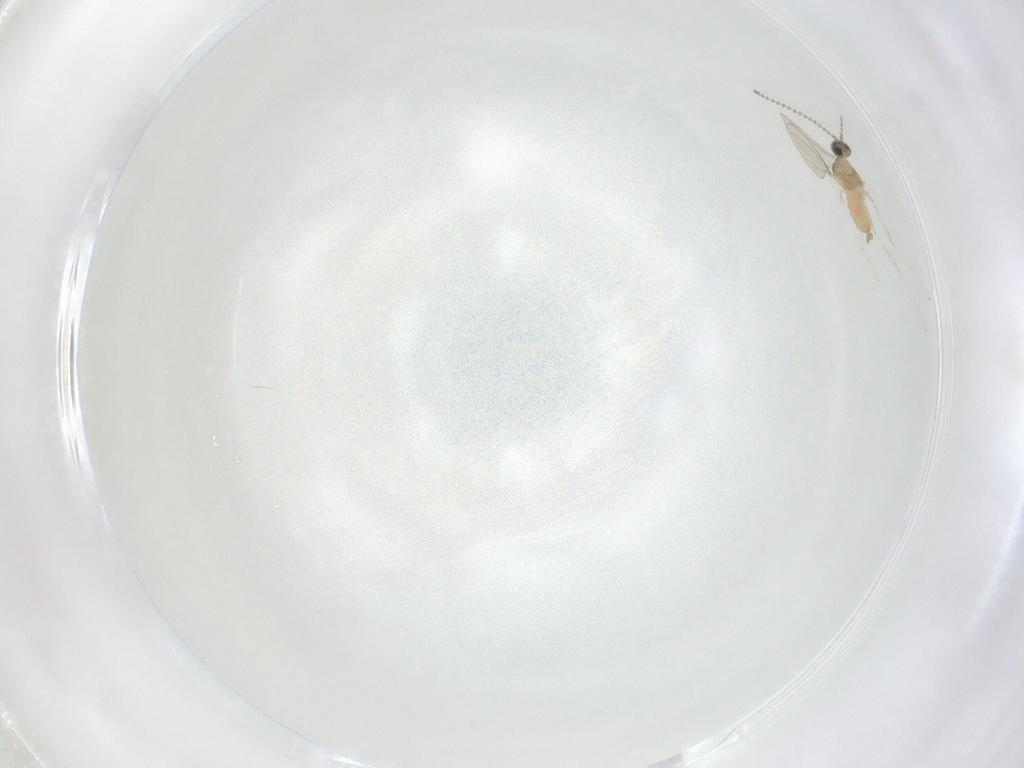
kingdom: Animalia
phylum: Arthropoda
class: Insecta
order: Diptera
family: Cecidomyiidae
